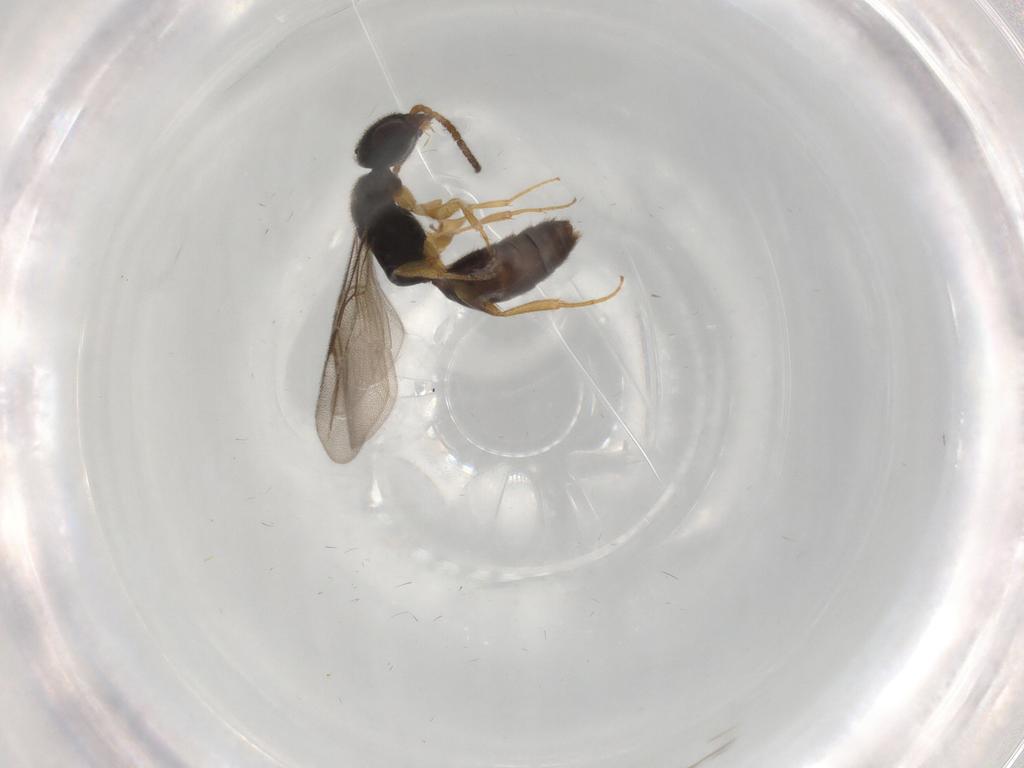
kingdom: Animalia
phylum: Arthropoda
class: Insecta
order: Hymenoptera
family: Bethylidae
